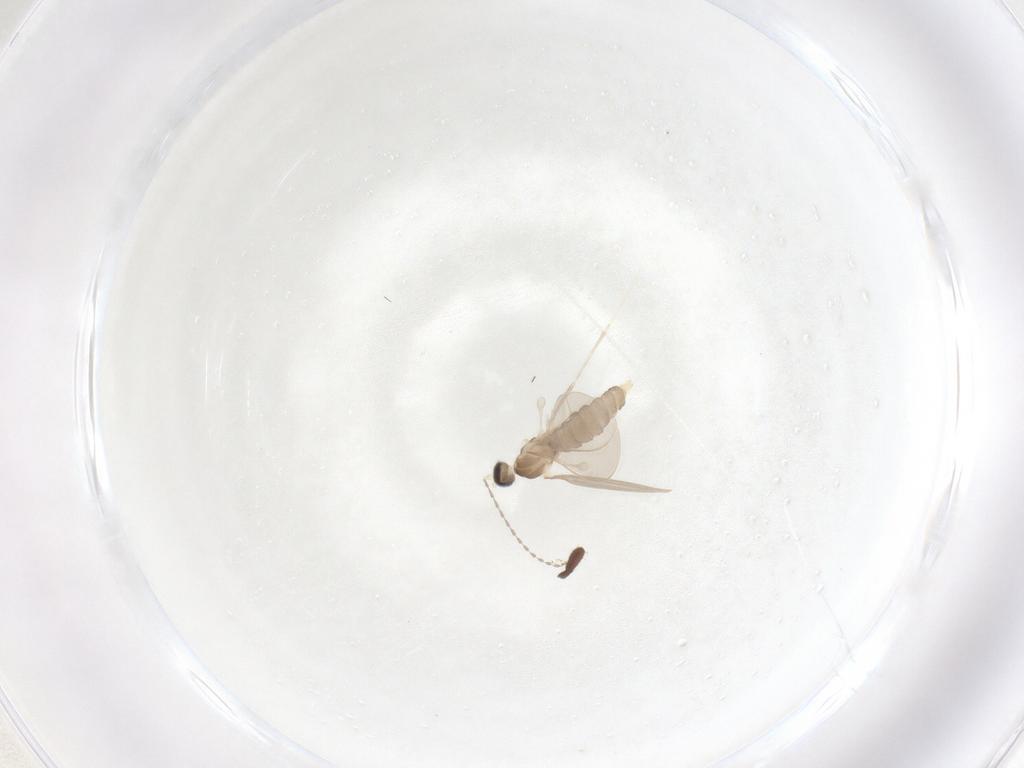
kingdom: Animalia
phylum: Arthropoda
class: Insecta
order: Diptera
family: Cecidomyiidae
